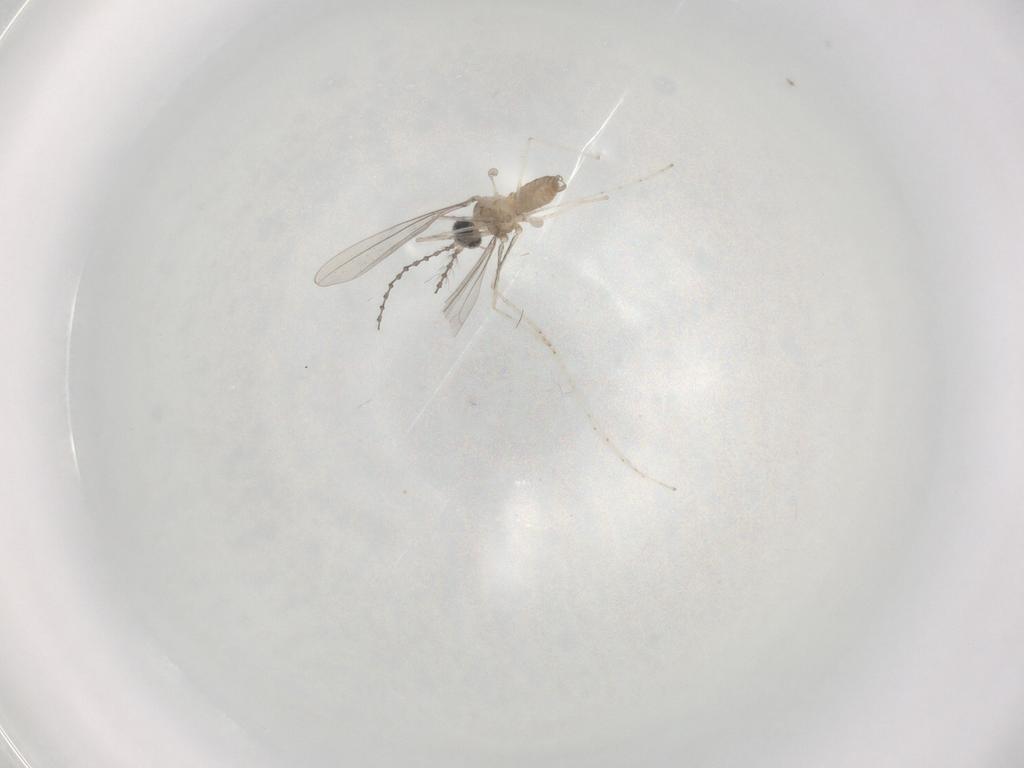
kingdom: Animalia
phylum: Arthropoda
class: Insecta
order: Diptera
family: Cecidomyiidae
